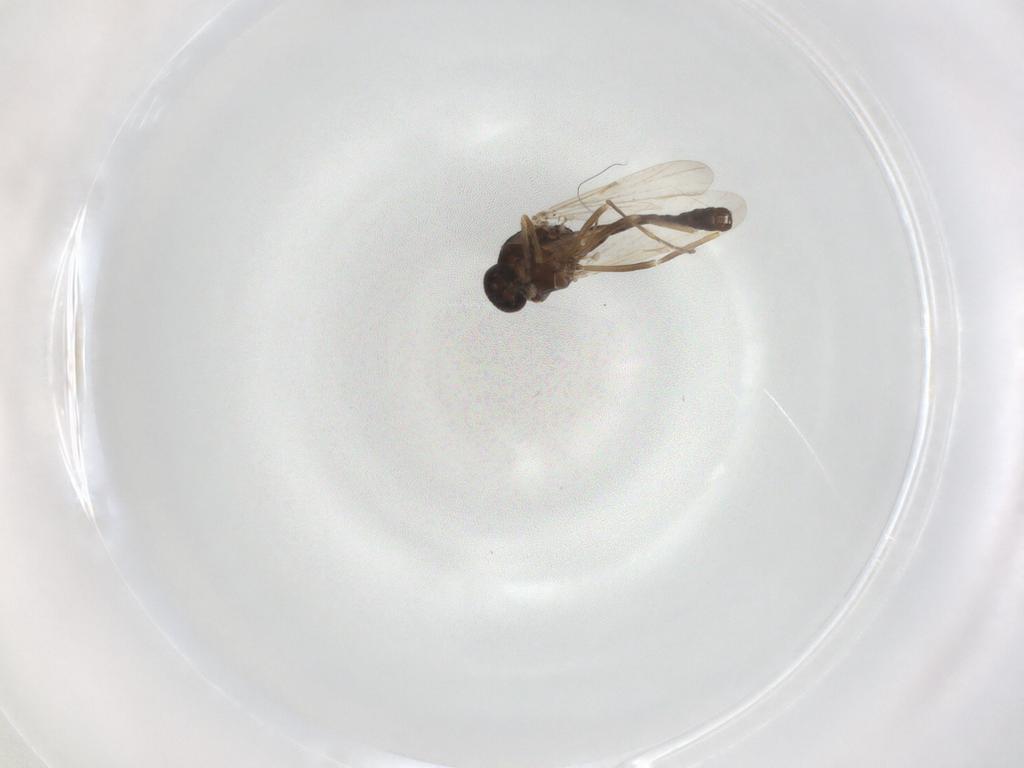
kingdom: Animalia
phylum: Arthropoda
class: Insecta
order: Diptera
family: Ceratopogonidae
